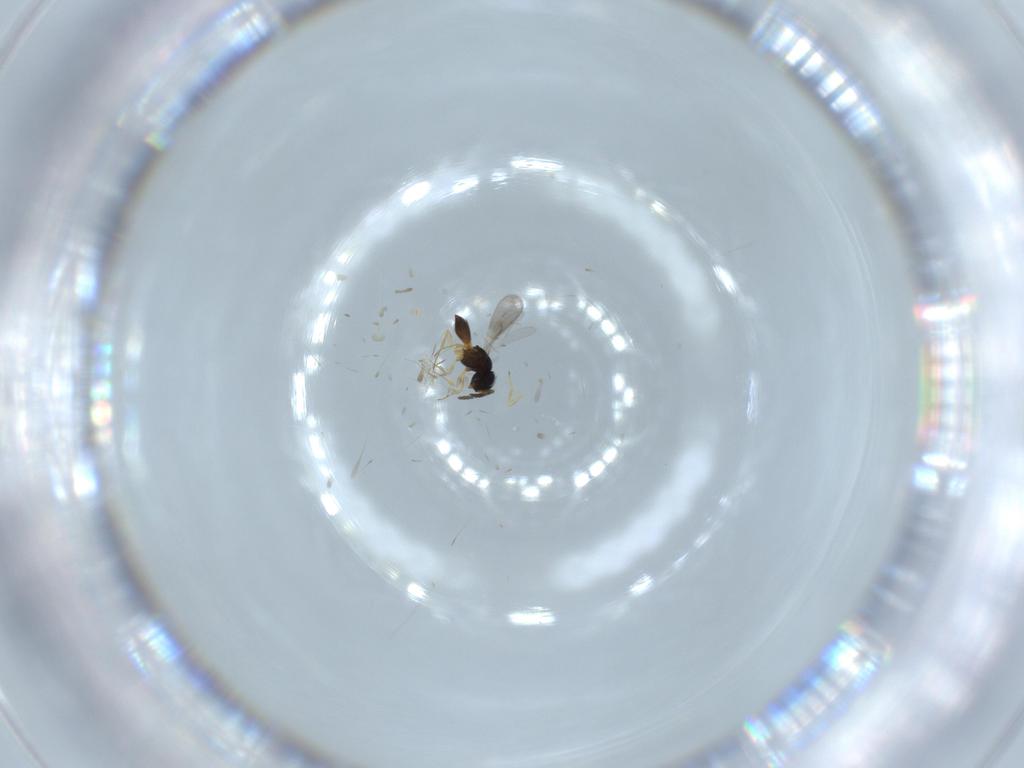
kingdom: Animalia
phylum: Arthropoda
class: Insecta
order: Hymenoptera
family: Scelionidae
